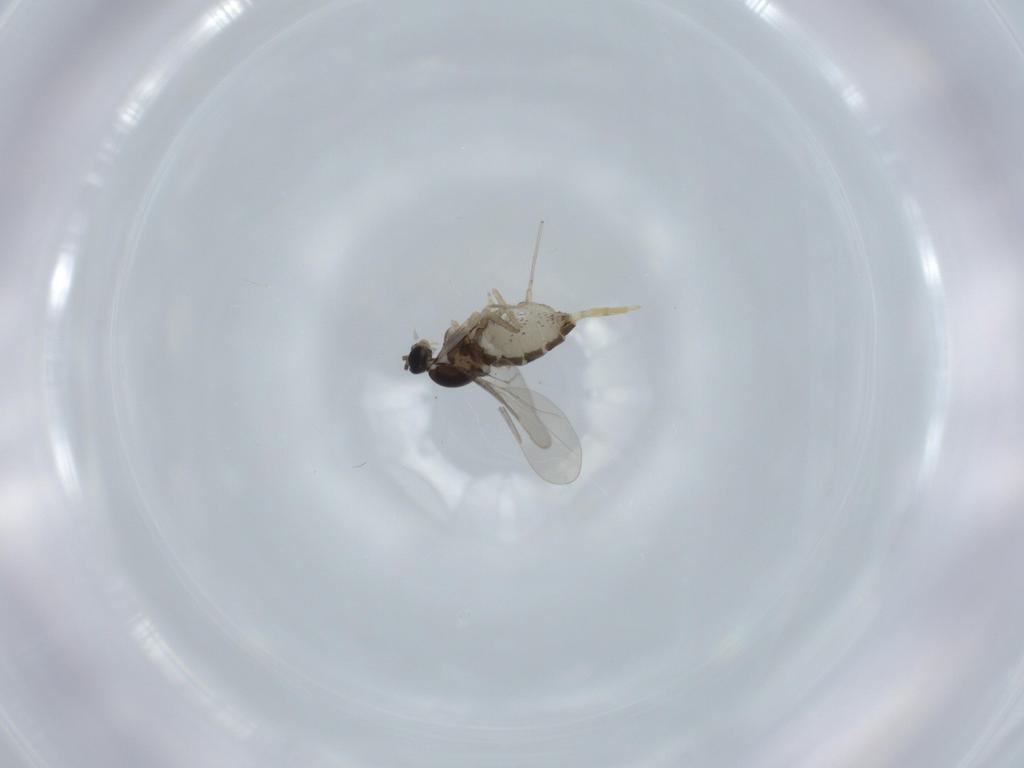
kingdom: Animalia
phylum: Arthropoda
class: Insecta
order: Diptera
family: Cecidomyiidae
